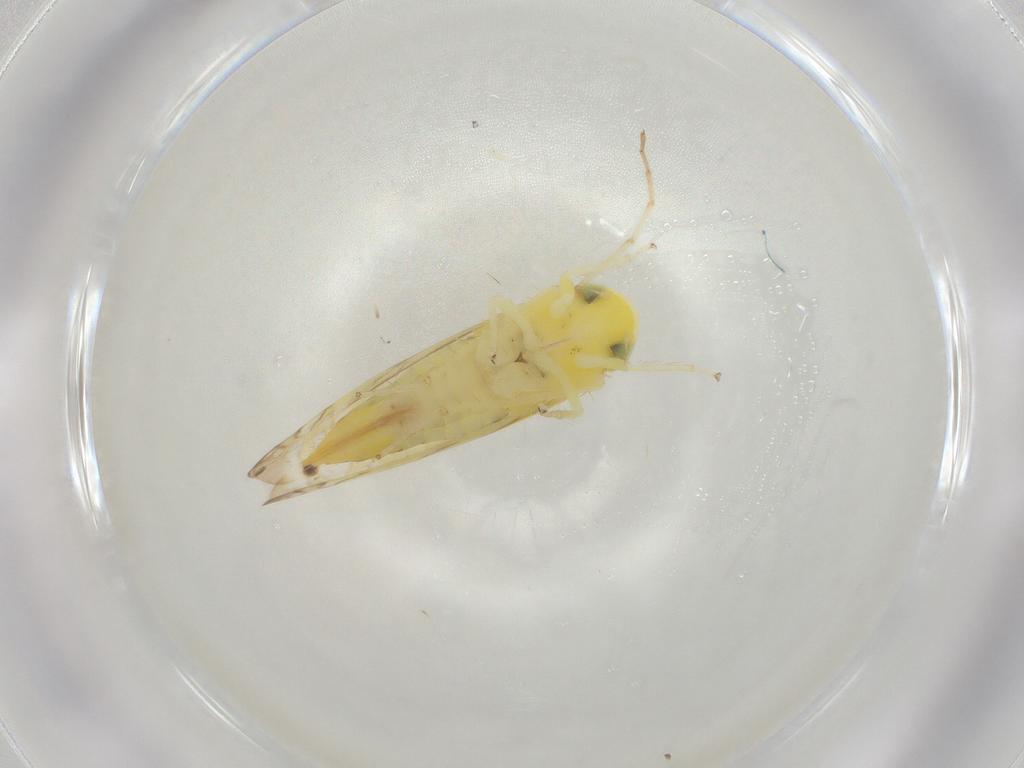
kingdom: Animalia
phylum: Arthropoda
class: Insecta
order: Hemiptera
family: Cicadellidae
